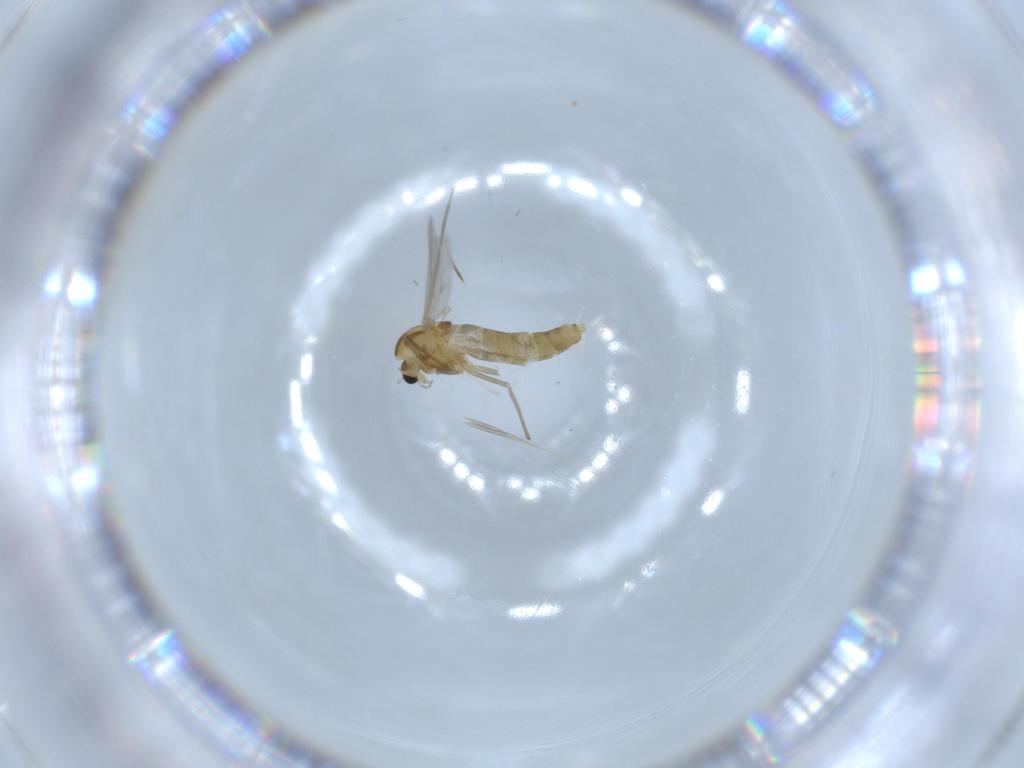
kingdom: Animalia
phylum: Arthropoda
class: Insecta
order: Diptera
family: Chironomidae
